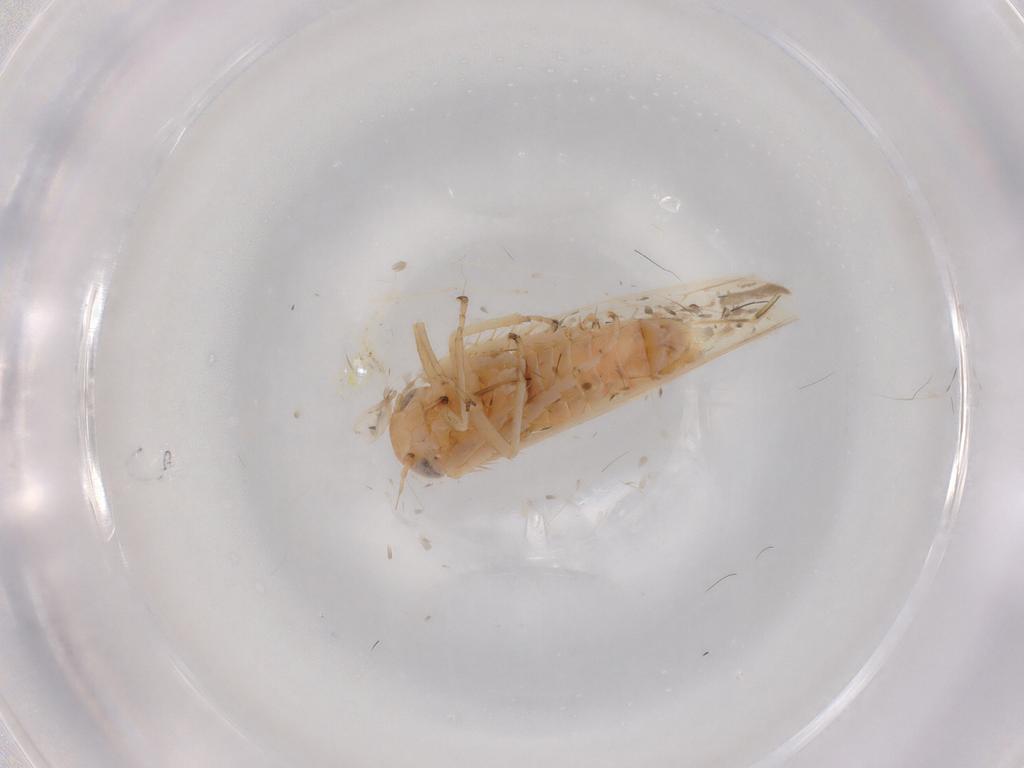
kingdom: Animalia
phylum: Arthropoda
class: Insecta
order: Hemiptera
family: Cicadellidae
